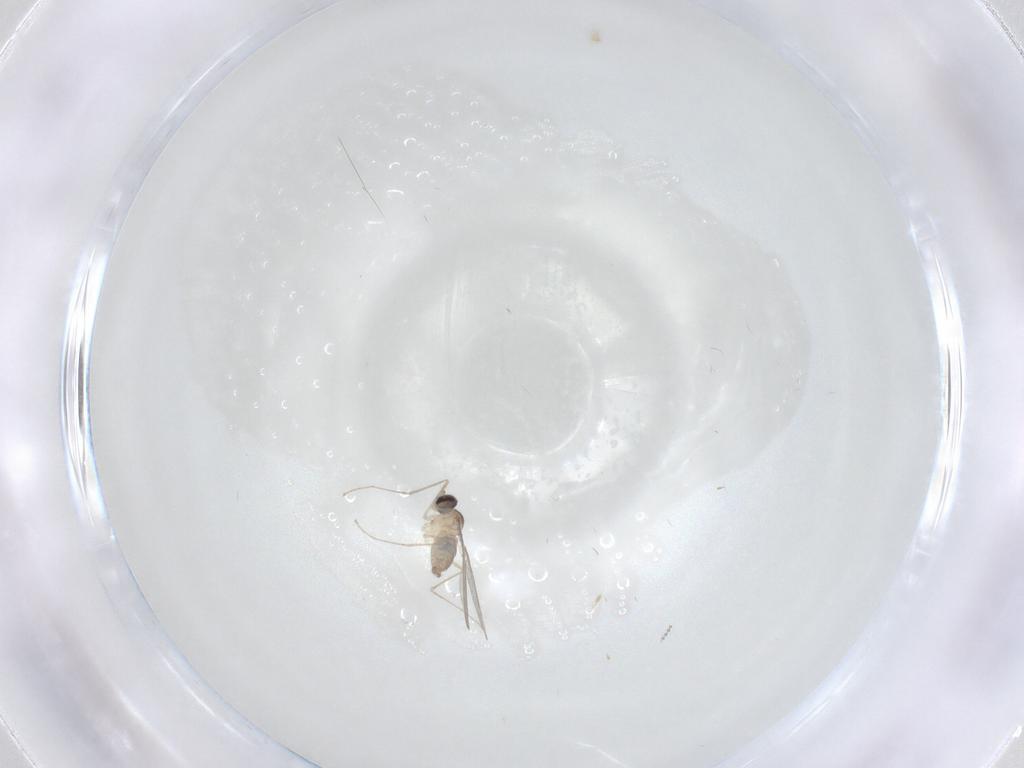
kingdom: Animalia
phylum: Arthropoda
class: Insecta
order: Diptera
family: Cecidomyiidae
